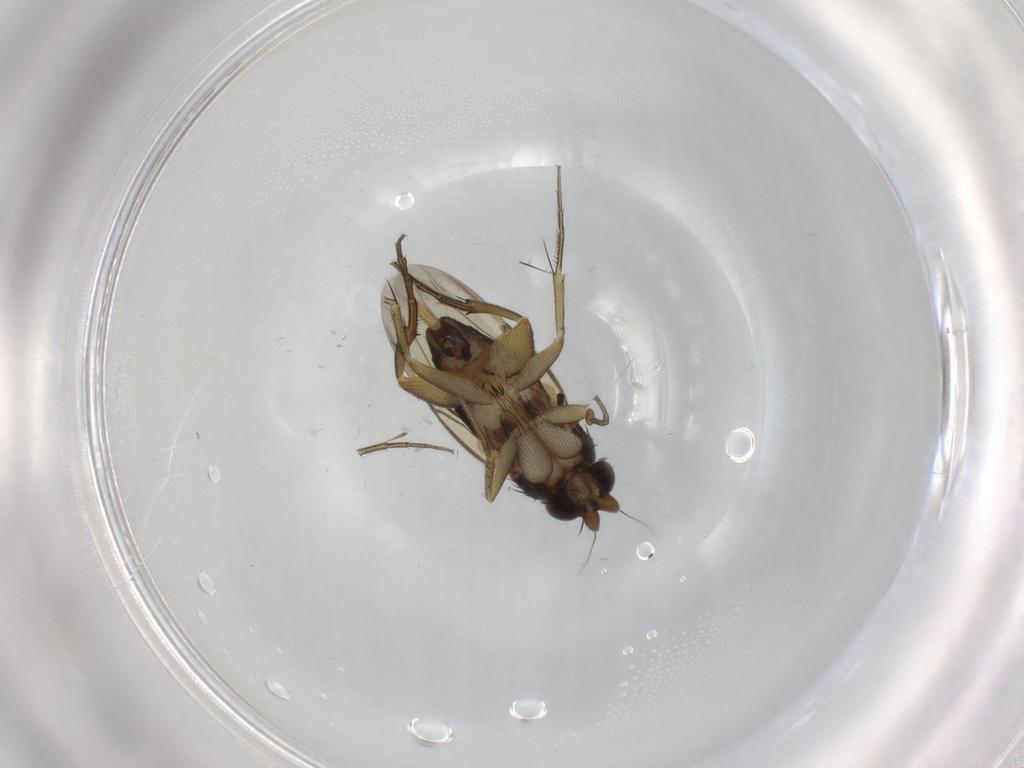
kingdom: Animalia
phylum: Arthropoda
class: Insecta
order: Diptera
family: Phoridae
